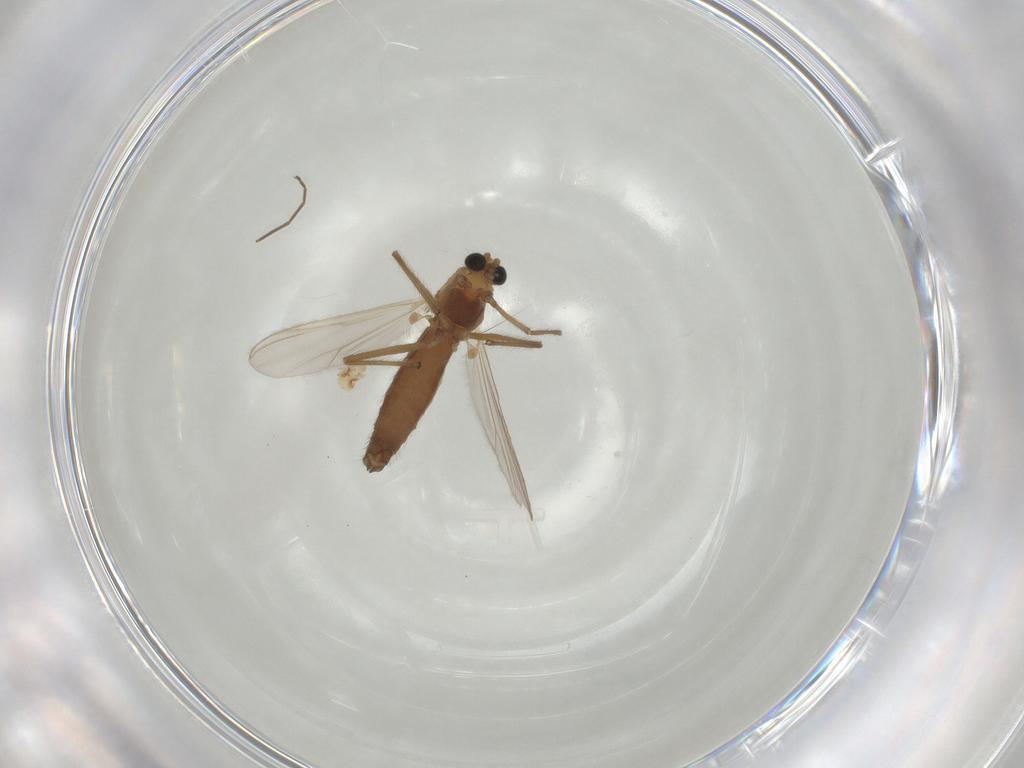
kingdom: Animalia
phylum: Arthropoda
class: Insecta
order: Diptera
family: Chironomidae
